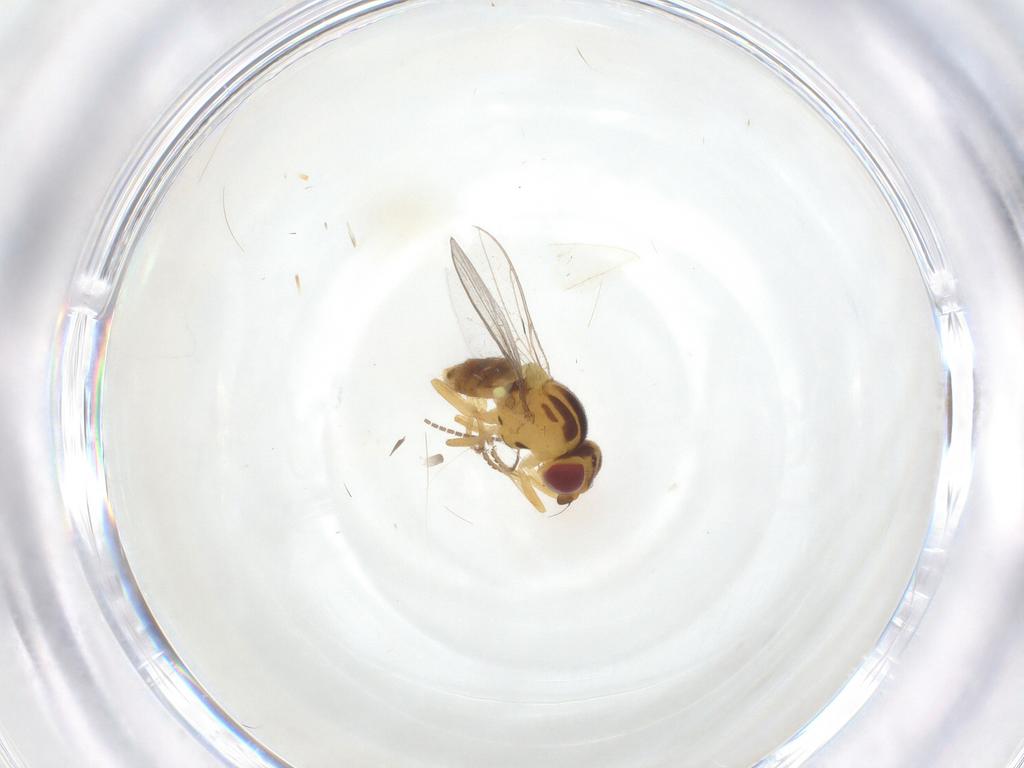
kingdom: Animalia
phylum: Arthropoda
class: Insecta
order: Diptera
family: Chloropidae
